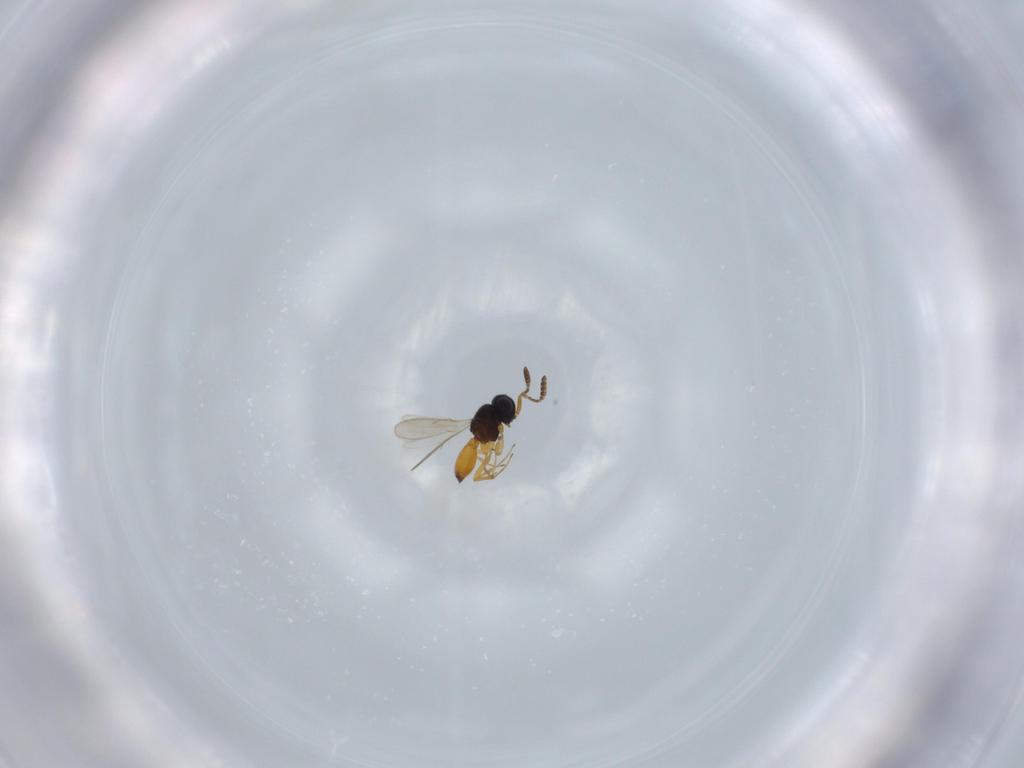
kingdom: Animalia
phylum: Arthropoda
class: Insecta
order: Hymenoptera
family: Scelionidae
